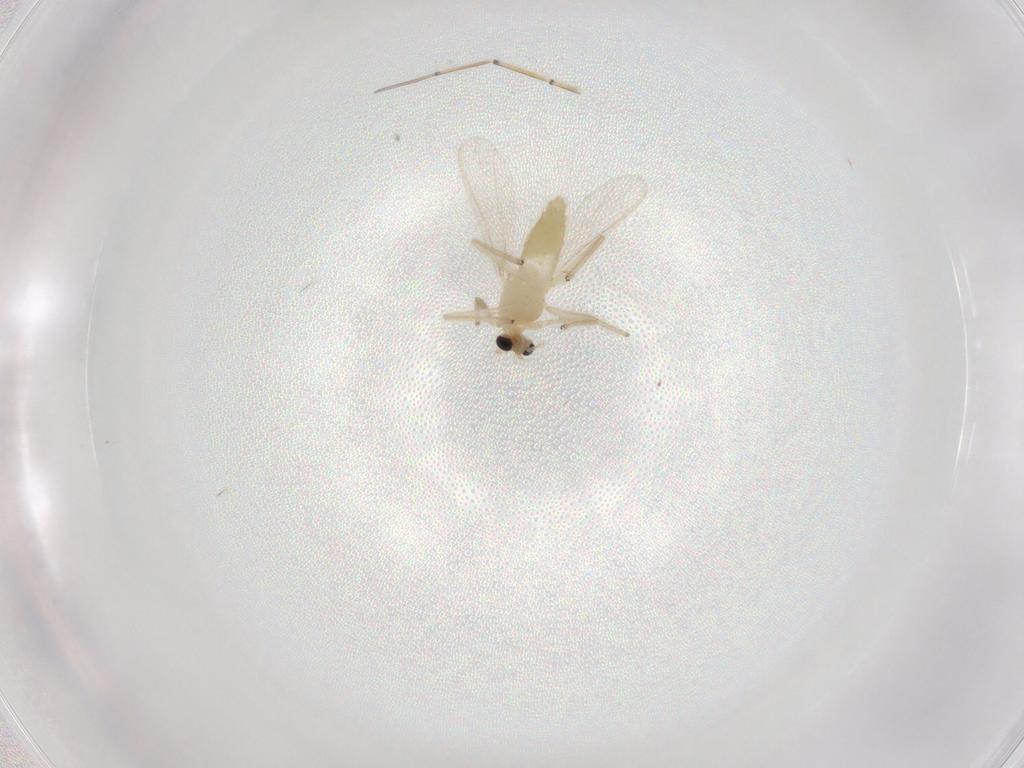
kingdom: Animalia
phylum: Arthropoda
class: Insecta
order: Diptera
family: Chironomidae
